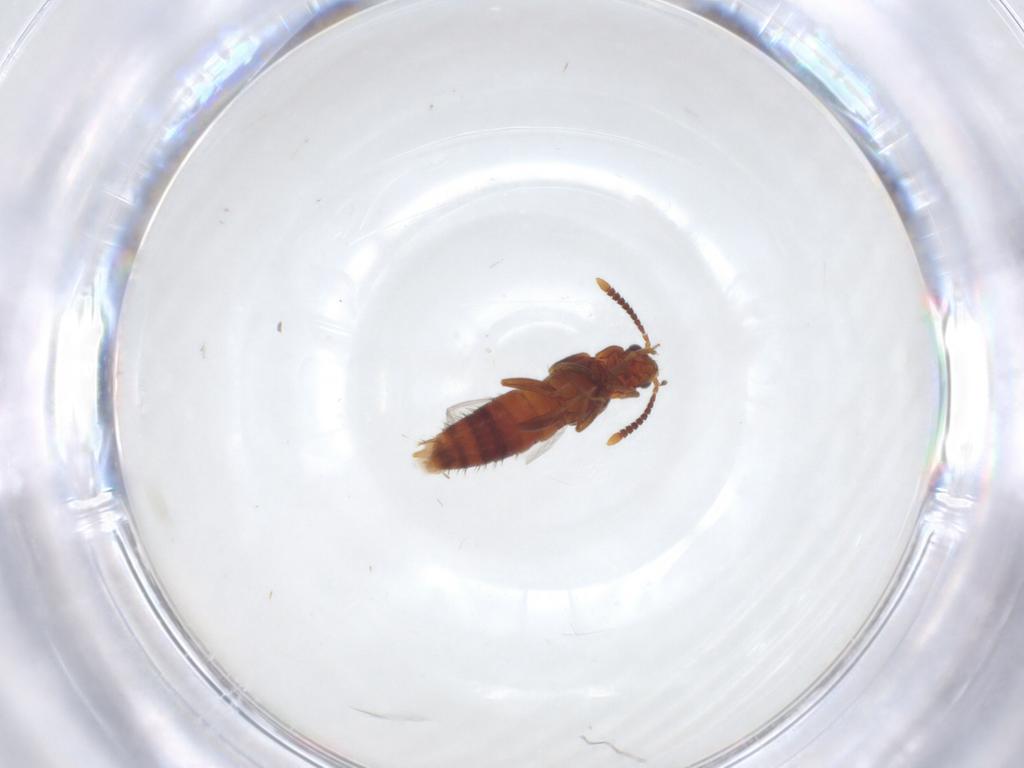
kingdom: Animalia
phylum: Arthropoda
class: Insecta
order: Coleoptera
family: Staphylinidae
